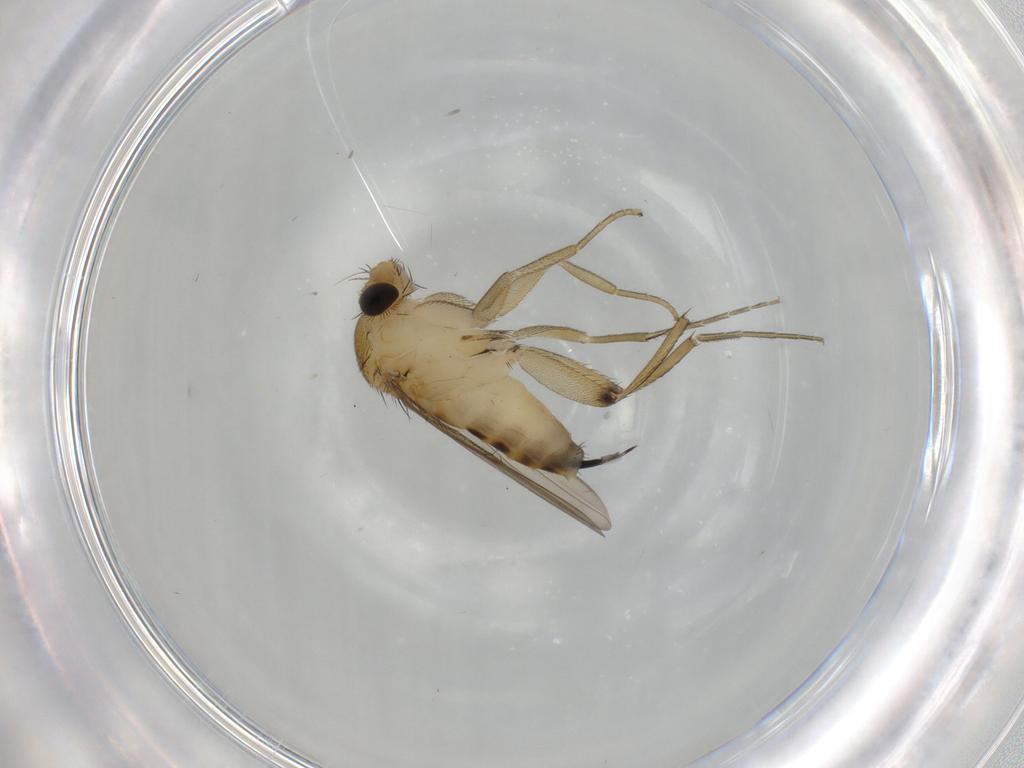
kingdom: Animalia
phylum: Arthropoda
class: Insecta
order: Diptera
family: Phoridae
